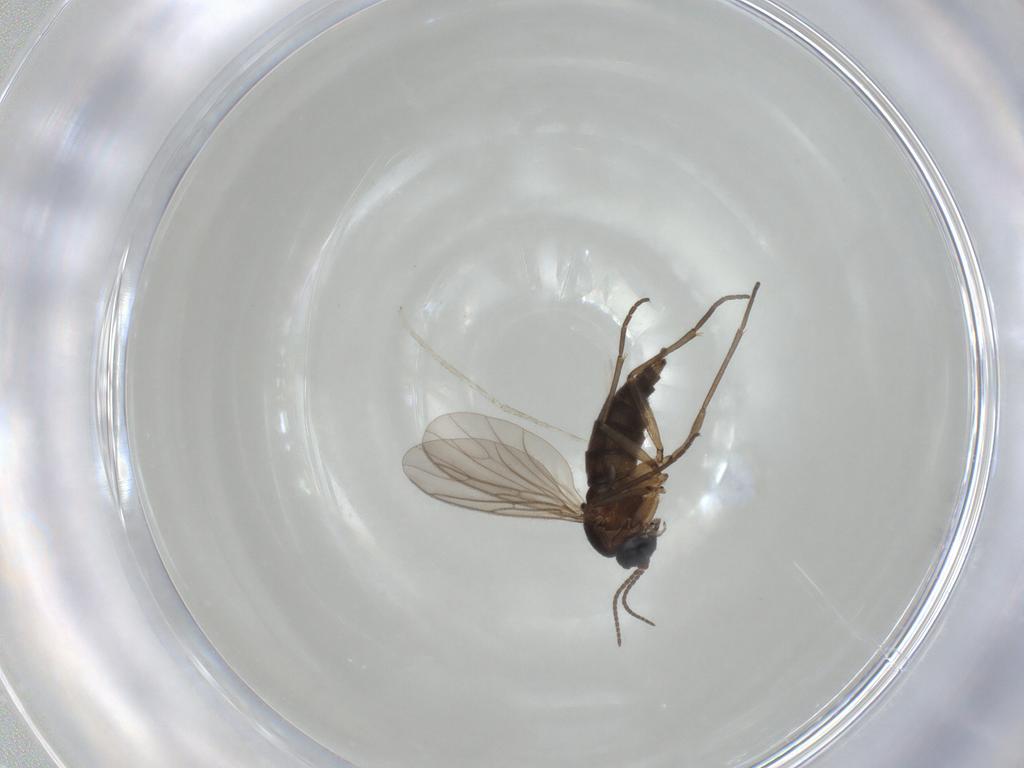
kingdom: Animalia
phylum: Arthropoda
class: Insecta
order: Diptera
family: Sciaridae
